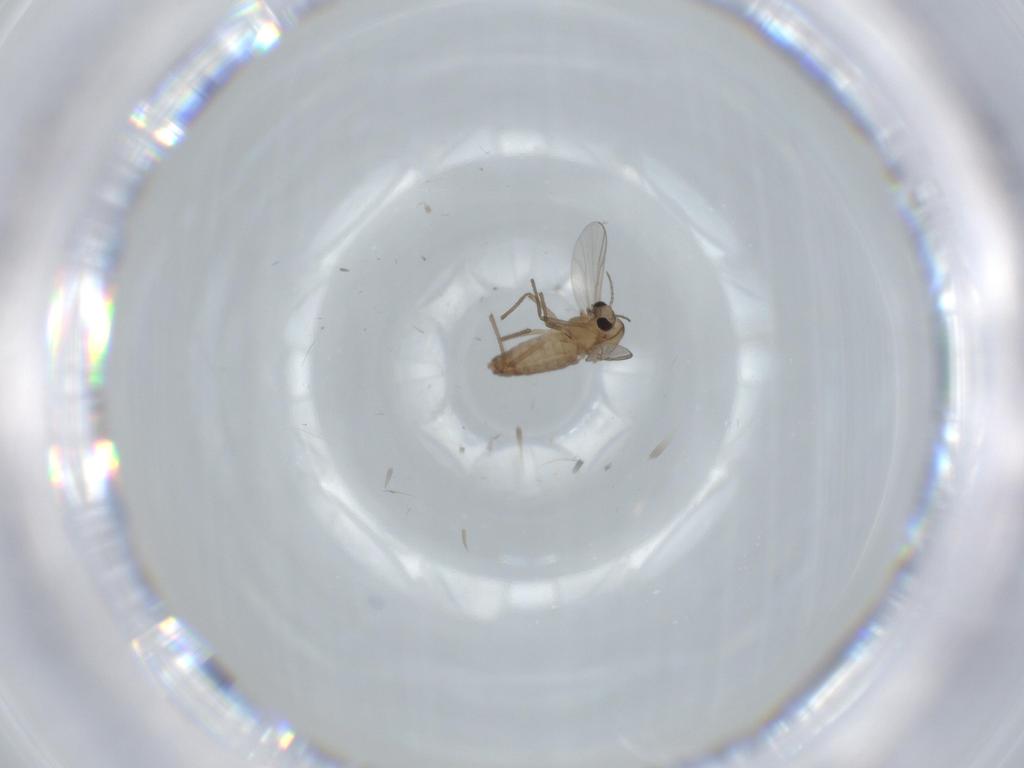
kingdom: Animalia
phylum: Arthropoda
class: Insecta
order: Diptera
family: Chironomidae
